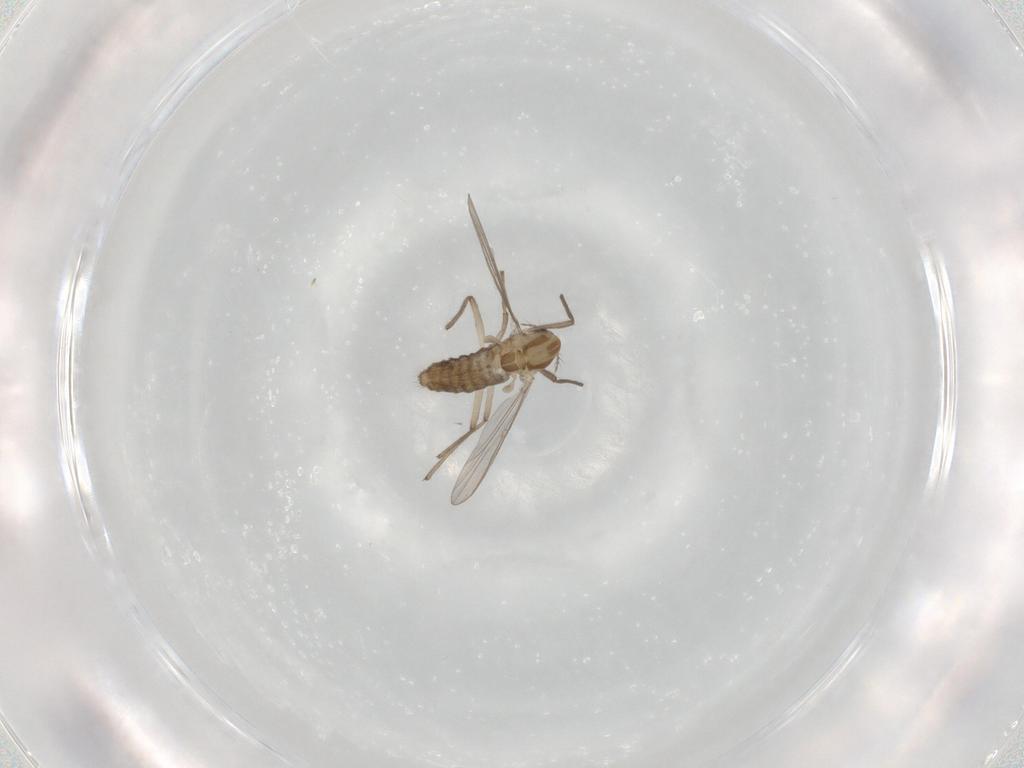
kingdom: Animalia
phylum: Arthropoda
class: Insecta
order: Diptera
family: Chironomidae
